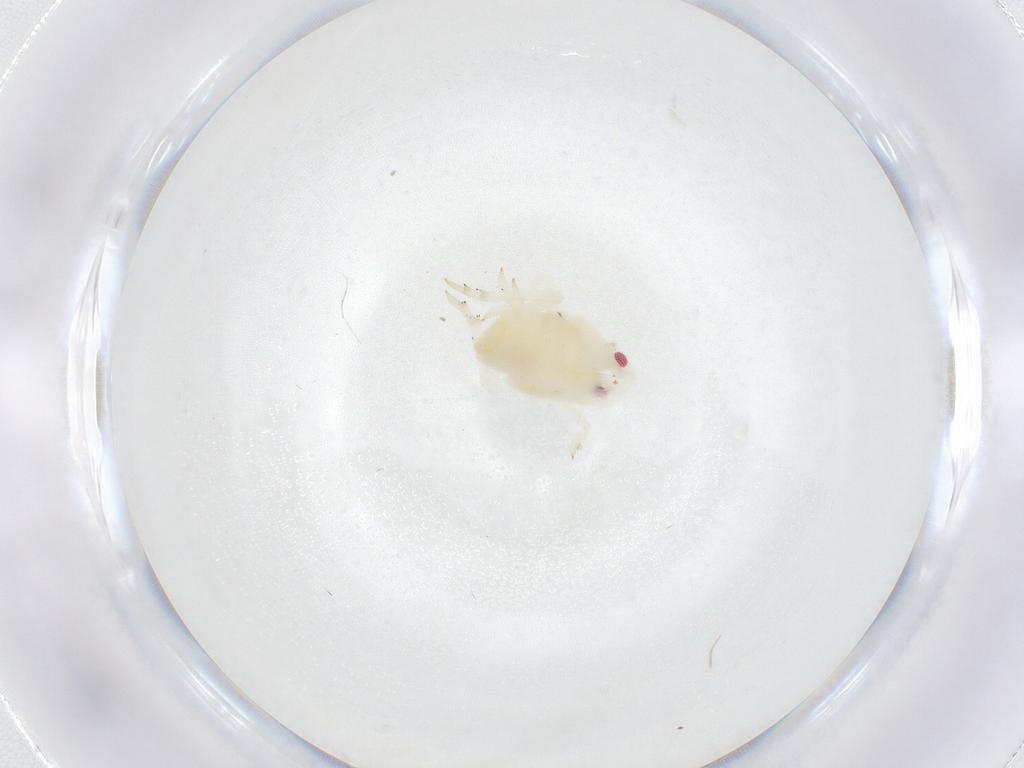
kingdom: Animalia
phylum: Arthropoda
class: Insecta
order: Hemiptera
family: Flatidae
